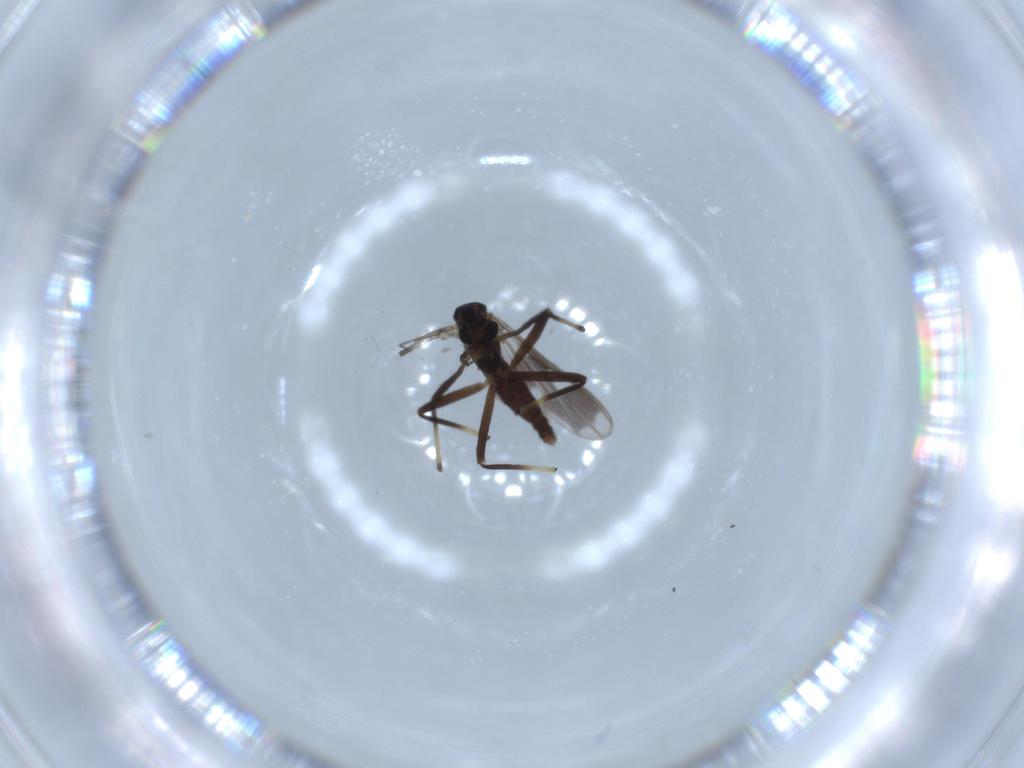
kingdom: Animalia
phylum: Arthropoda
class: Insecta
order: Diptera
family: Chironomidae
